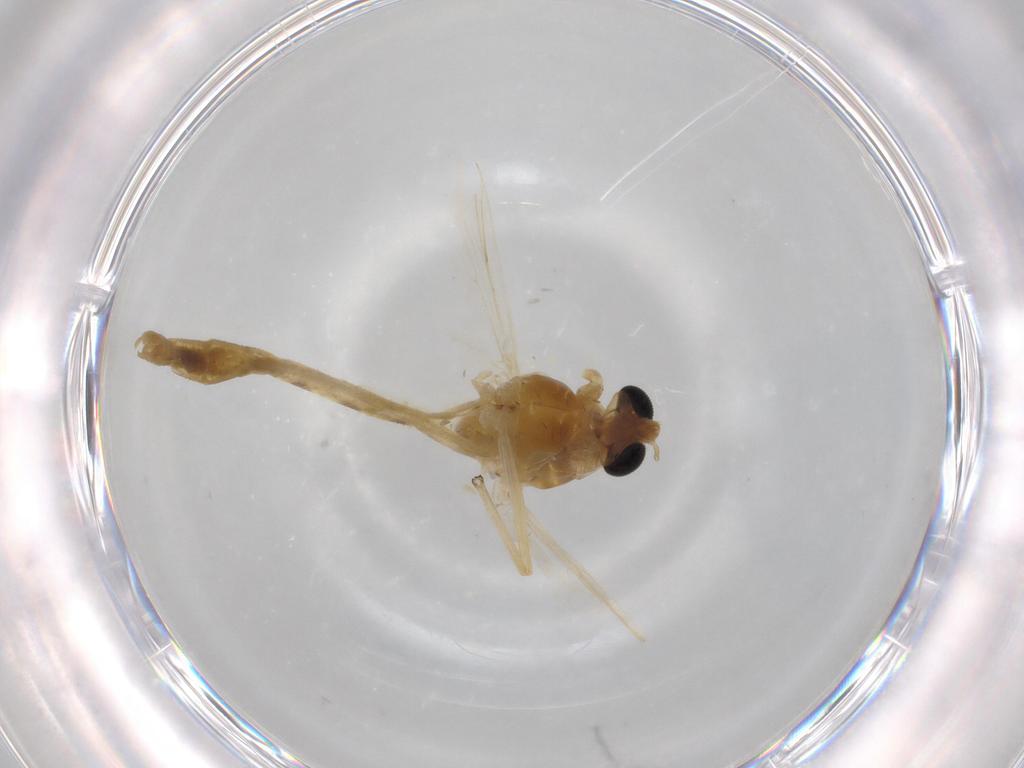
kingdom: Animalia
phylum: Arthropoda
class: Insecta
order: Diptera
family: Chironomidae
